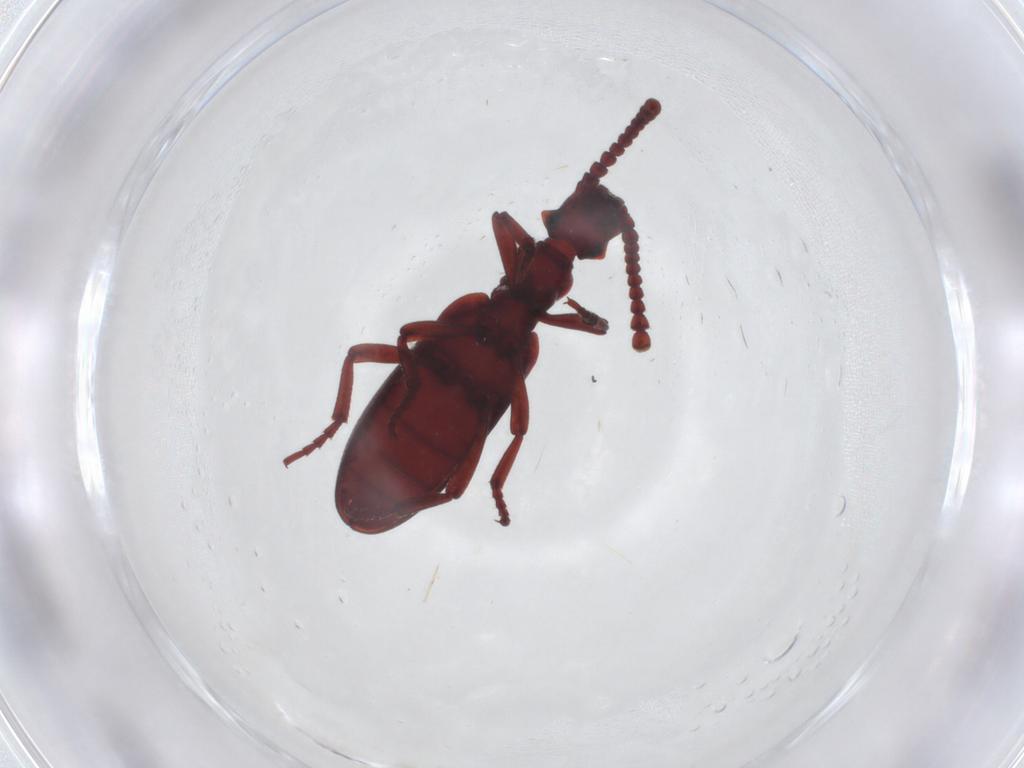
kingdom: Animalia
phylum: Arthropoda
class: Insecta
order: Coleoptera
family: Anthicidae
